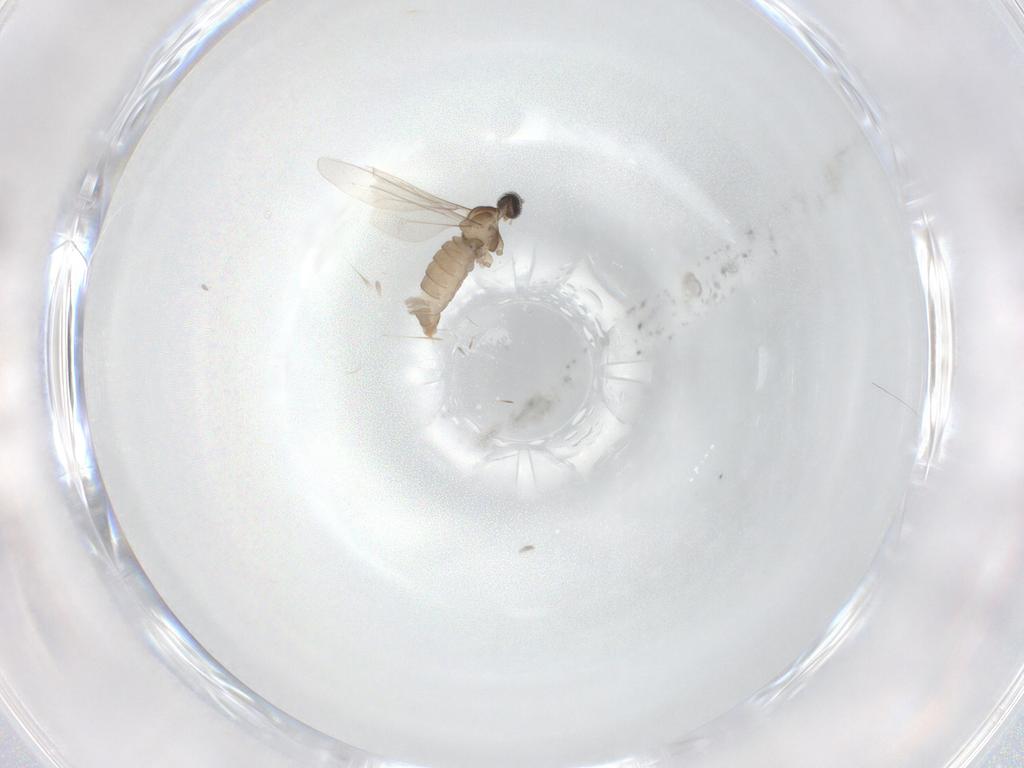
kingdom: Animalia
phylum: Arthropoda
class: Insecta
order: Diptera
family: Cecidomyiidae
